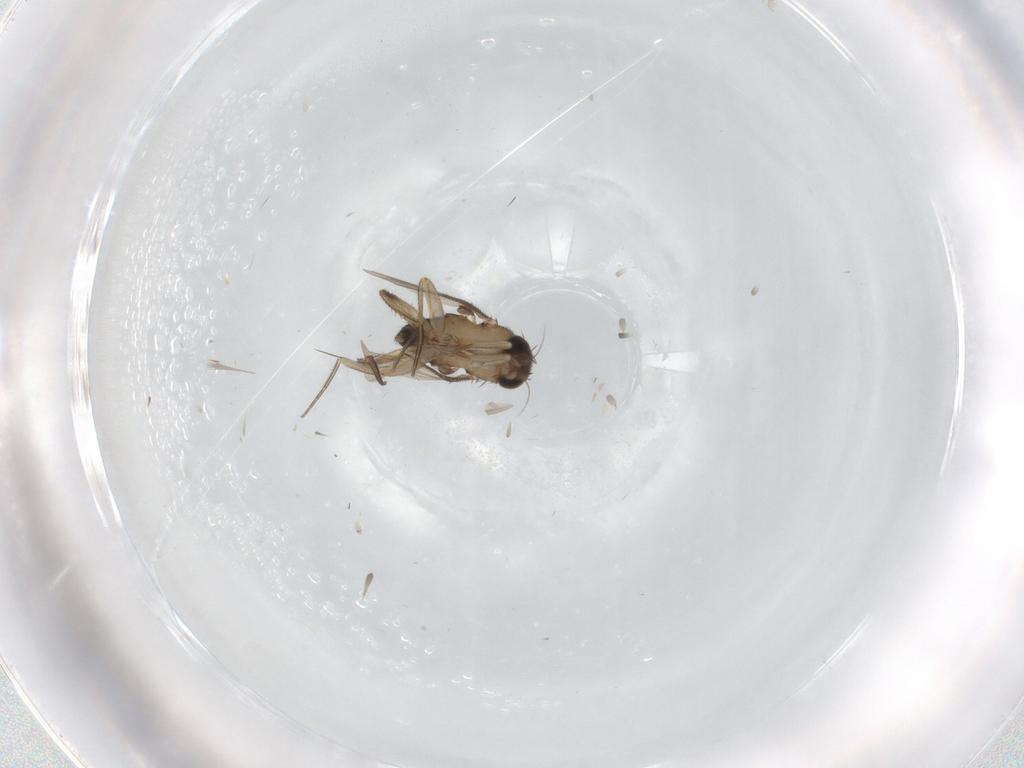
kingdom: Animalia
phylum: Arthropoda
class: Insecta
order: Diptera
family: Phoridae
